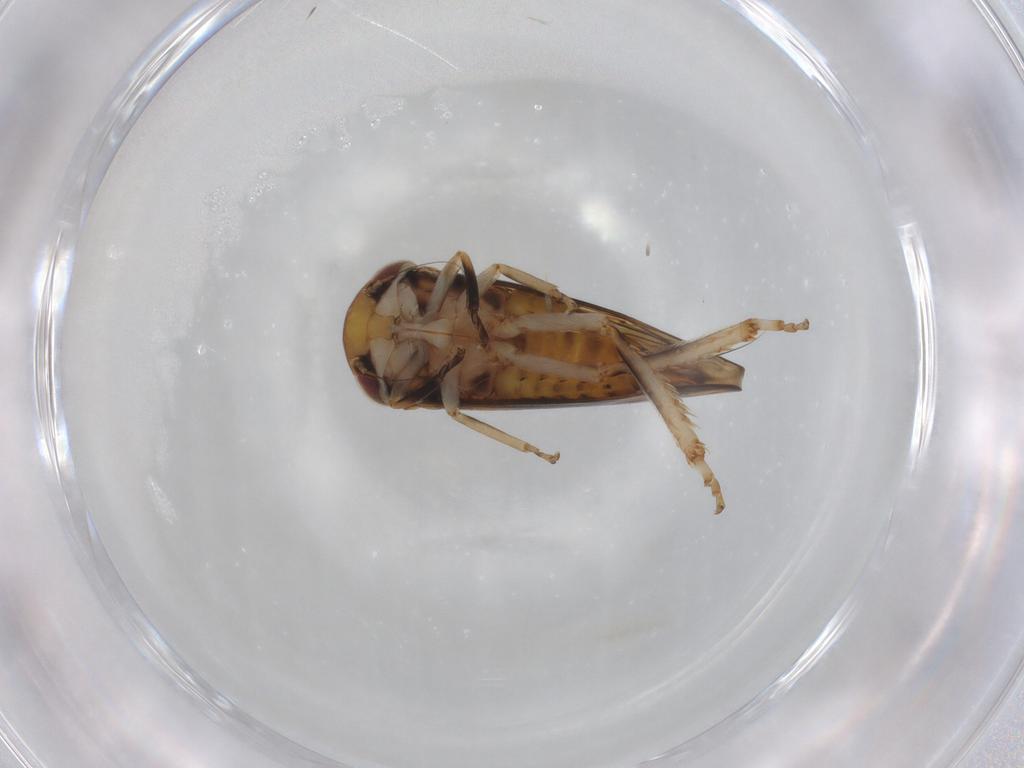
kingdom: Animalia
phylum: Arthropoda
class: Insecta
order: Hemiptera
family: Cicadellidae
